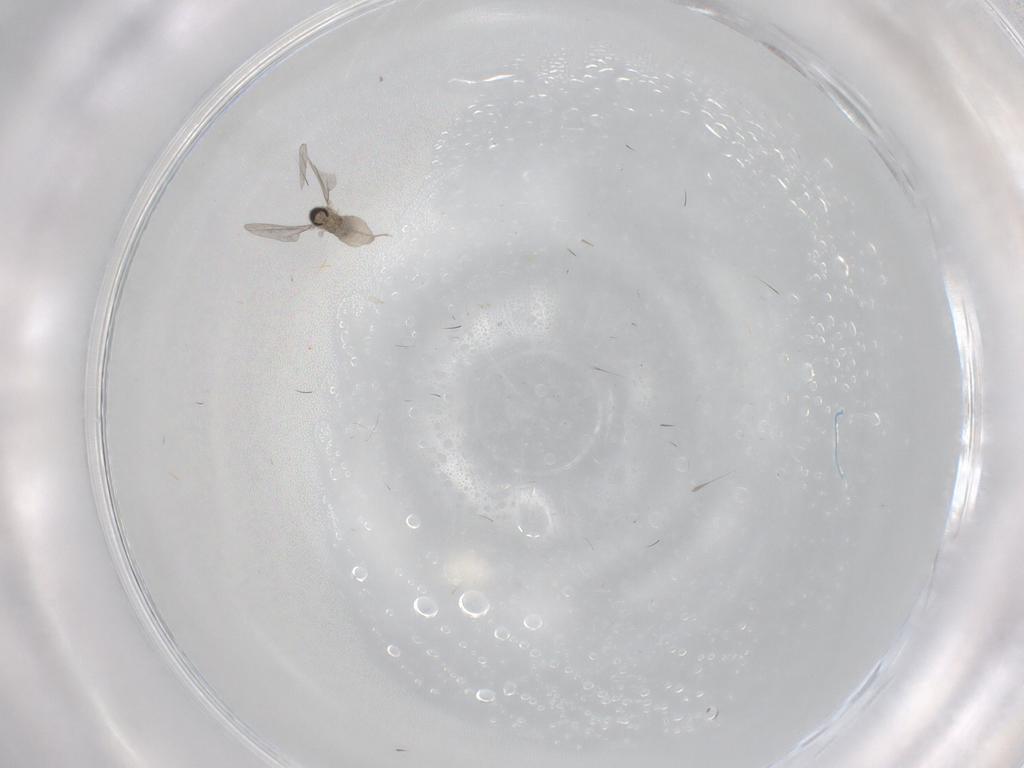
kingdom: Animalia
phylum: Arthropoda
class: Insecta
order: Diptera
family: Cecidomyiidae
